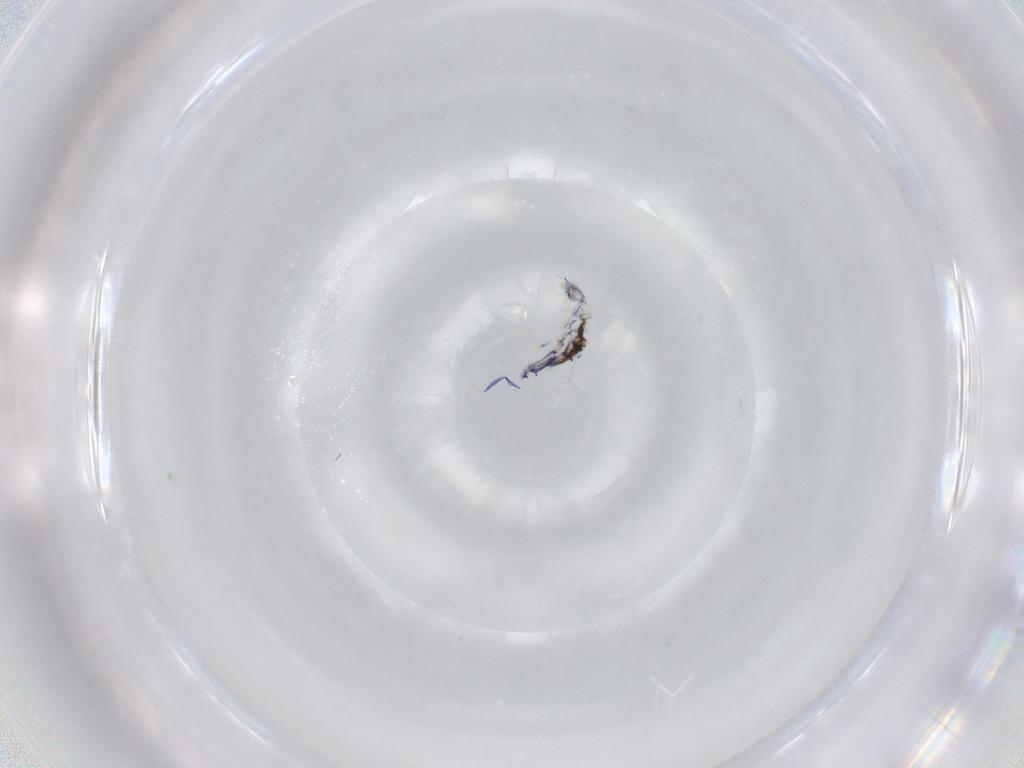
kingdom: Animalia
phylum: Arthropoda
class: Collembola
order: Entomobryomorpha
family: Entomobryidae
